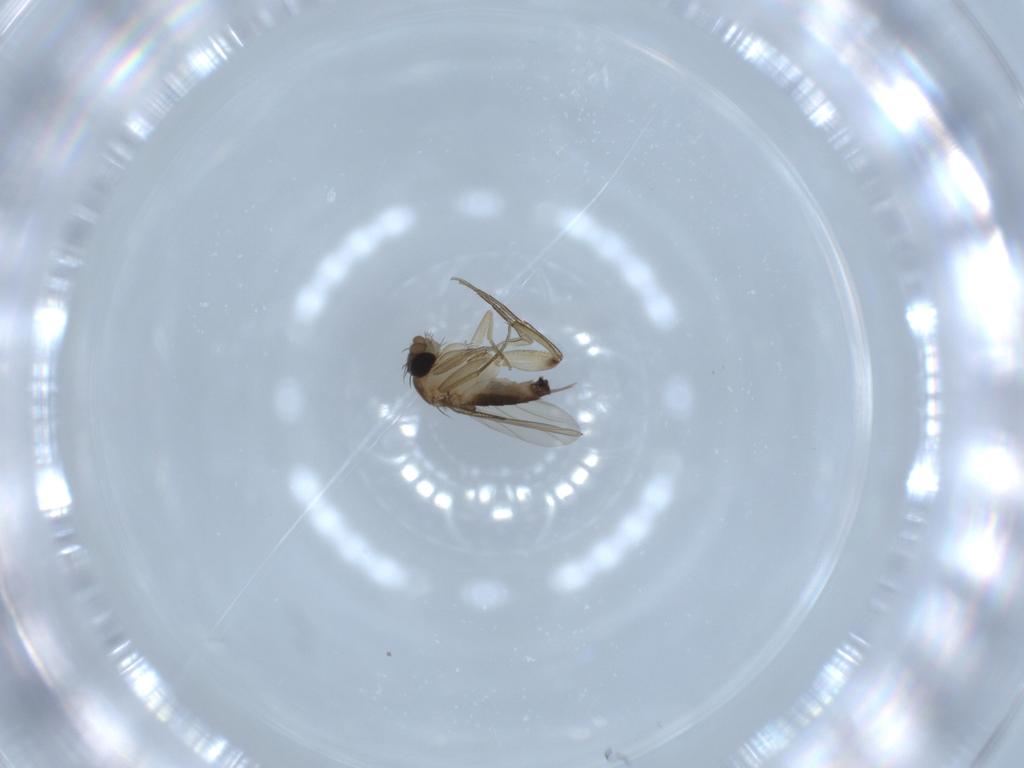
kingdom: Animalia
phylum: Arthropoda
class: Insecta
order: Diptera
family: Phoridae
